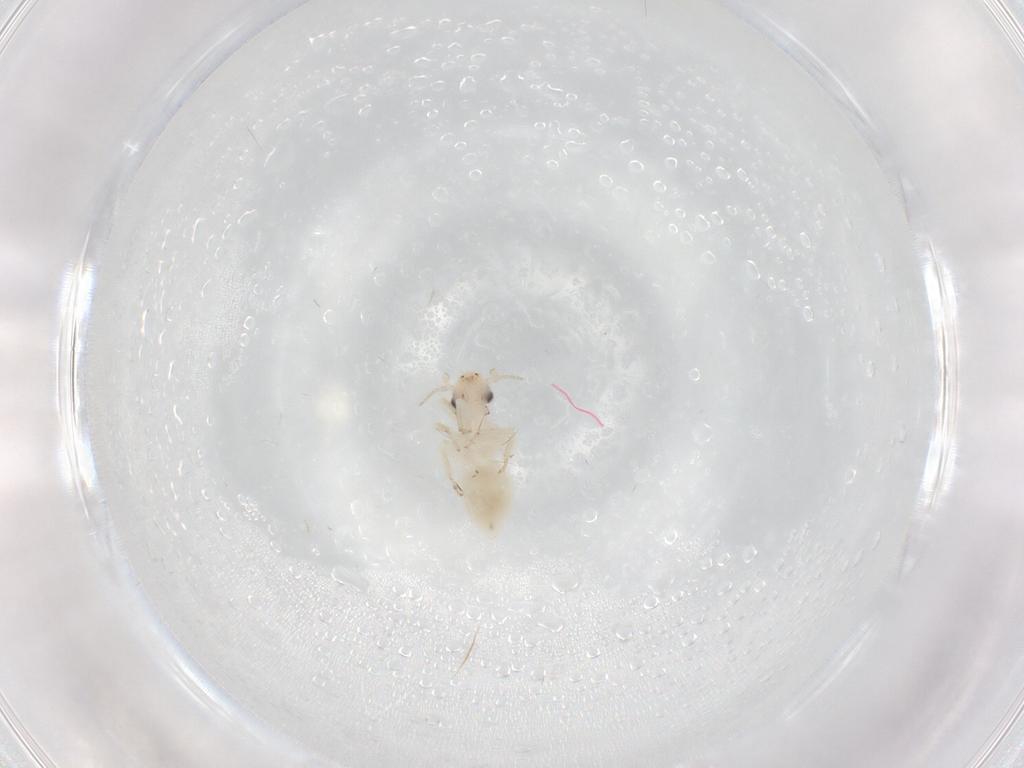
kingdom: Animalia
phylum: Arthropoda
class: Insecta
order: Psocodea
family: Lepidopsocidae
